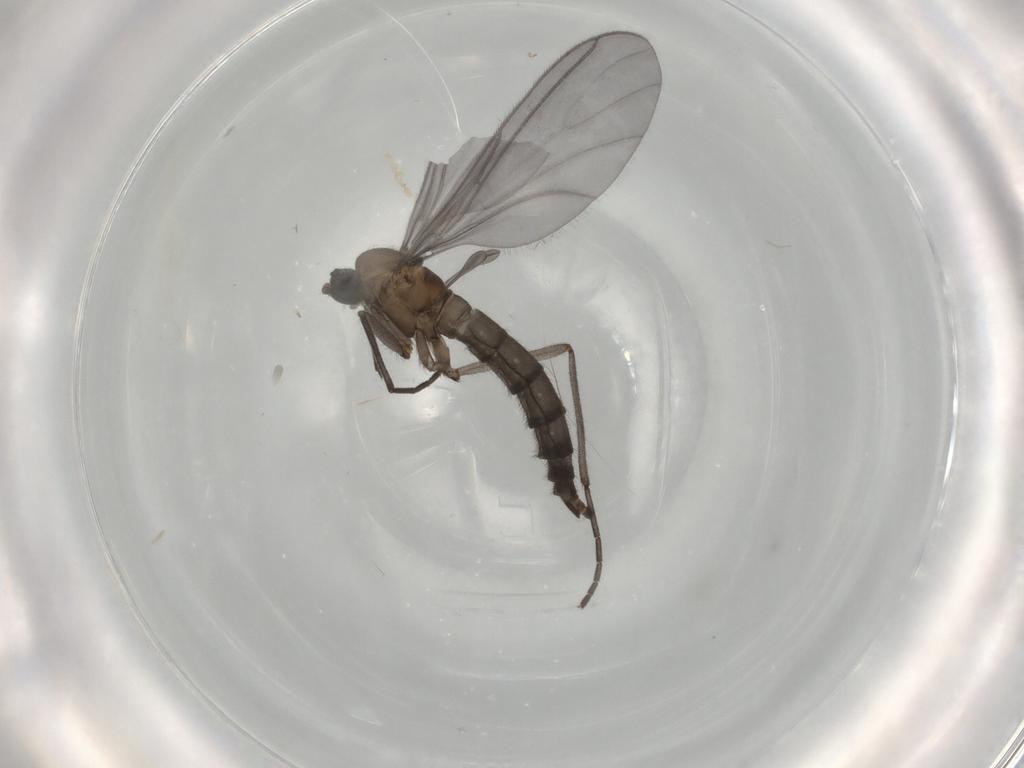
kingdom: Animalia
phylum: Arthropoda
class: Insecta
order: Diptera
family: Sciaridae
